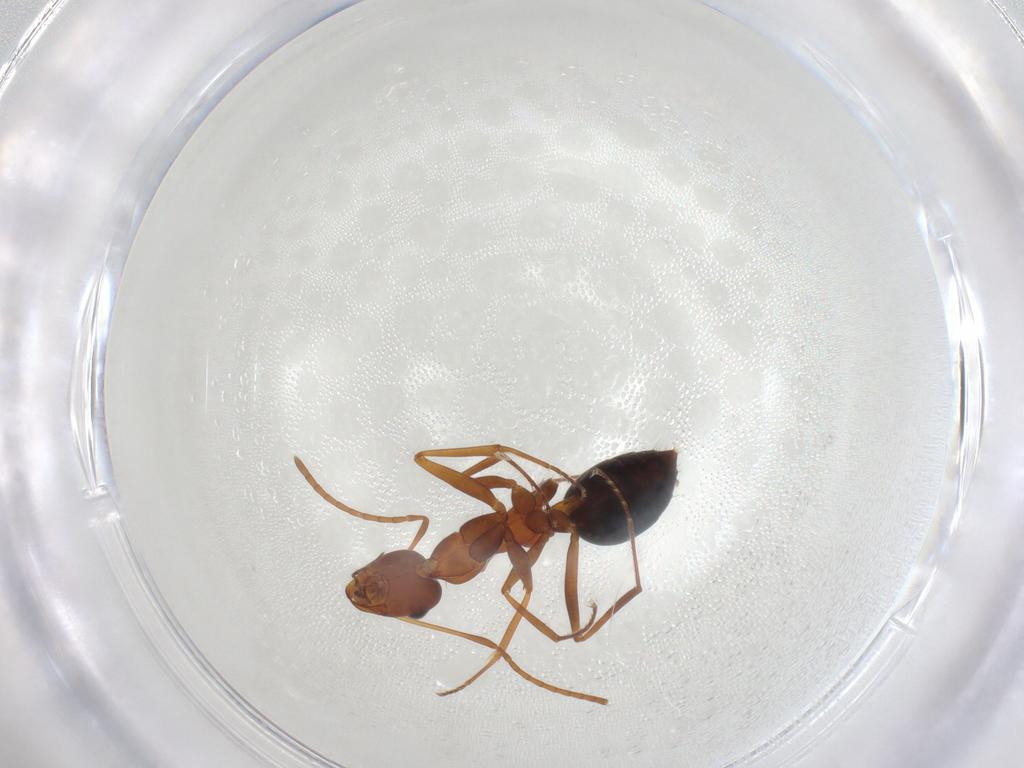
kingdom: Animalia
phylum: Arthropoda
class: Insecta
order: Hymenoptera
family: Formicidae
